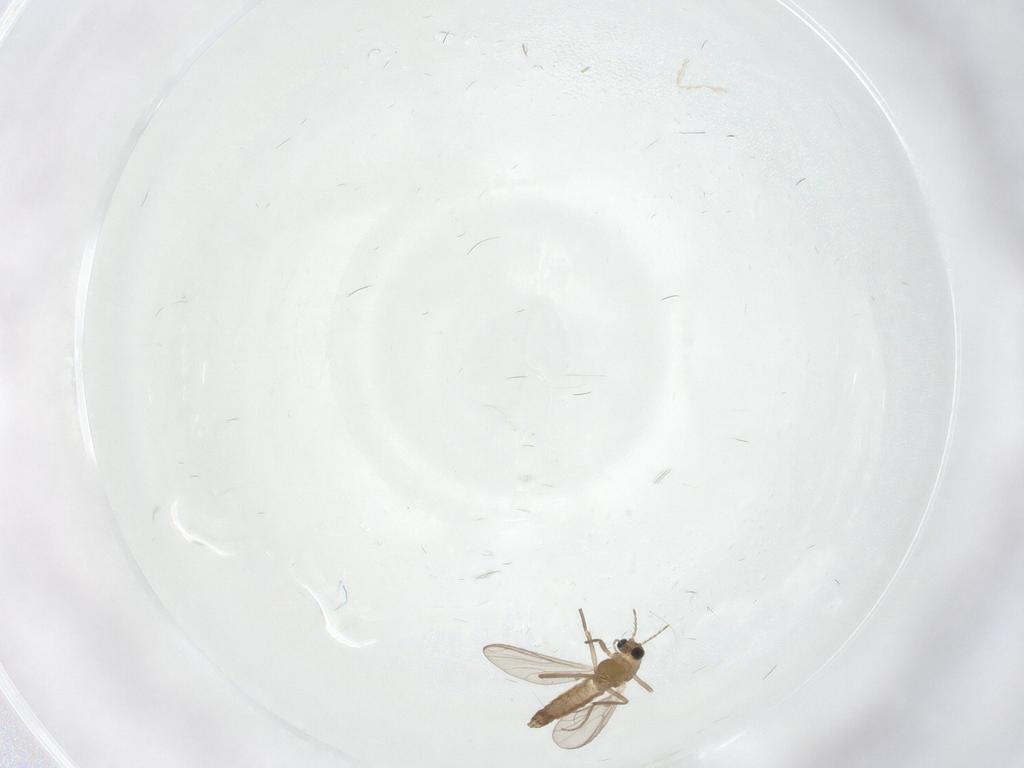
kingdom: Animalia
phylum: Arthropoda
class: Insecta
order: Diptera
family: Chironomidae
